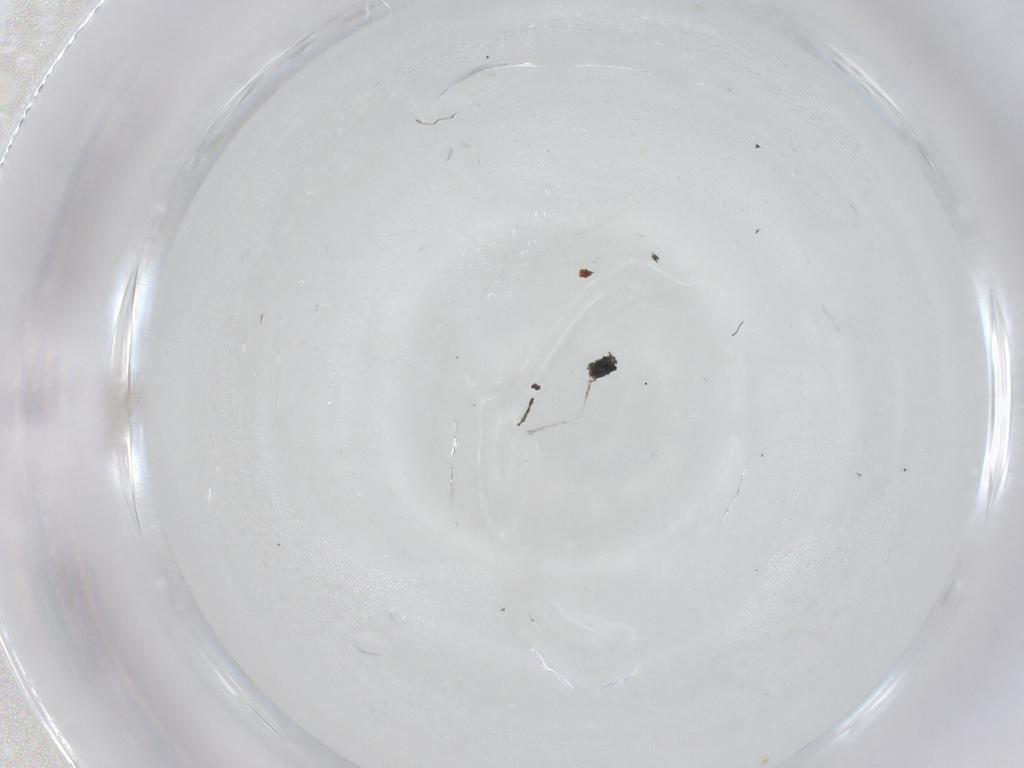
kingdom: Animalia
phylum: Arthropoda
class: Insecta
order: Diptera
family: Cecidomyiidae
